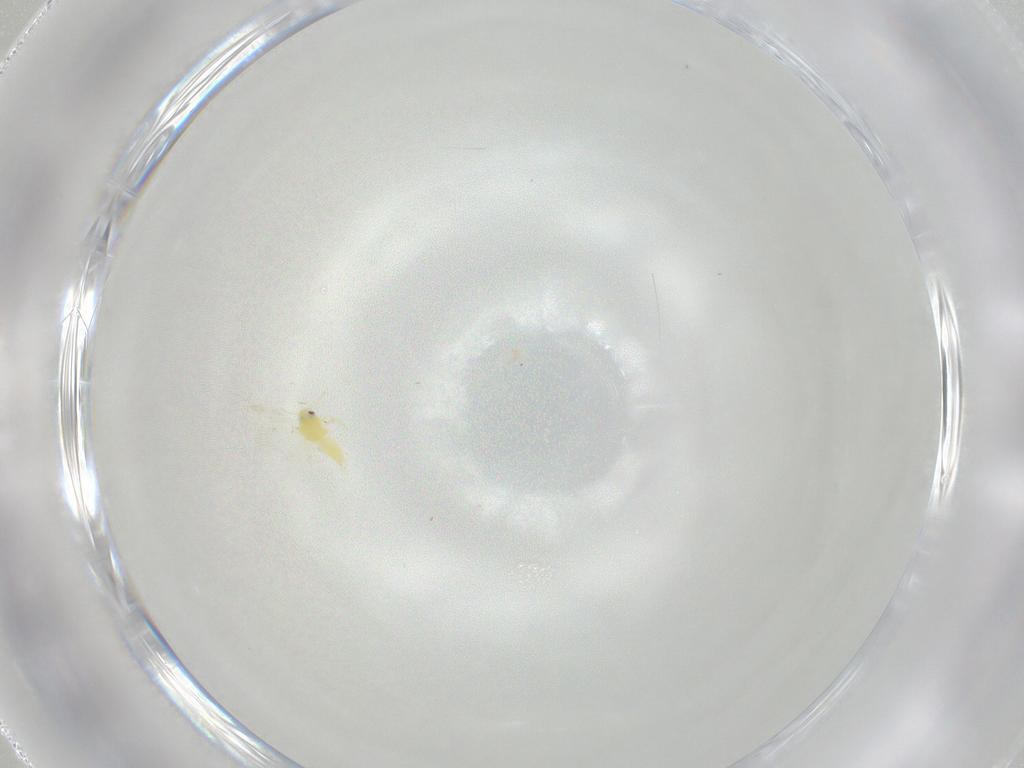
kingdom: Animalia
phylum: Arthropoda
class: Insecta
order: Hemiptera
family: Aleyrodidae
